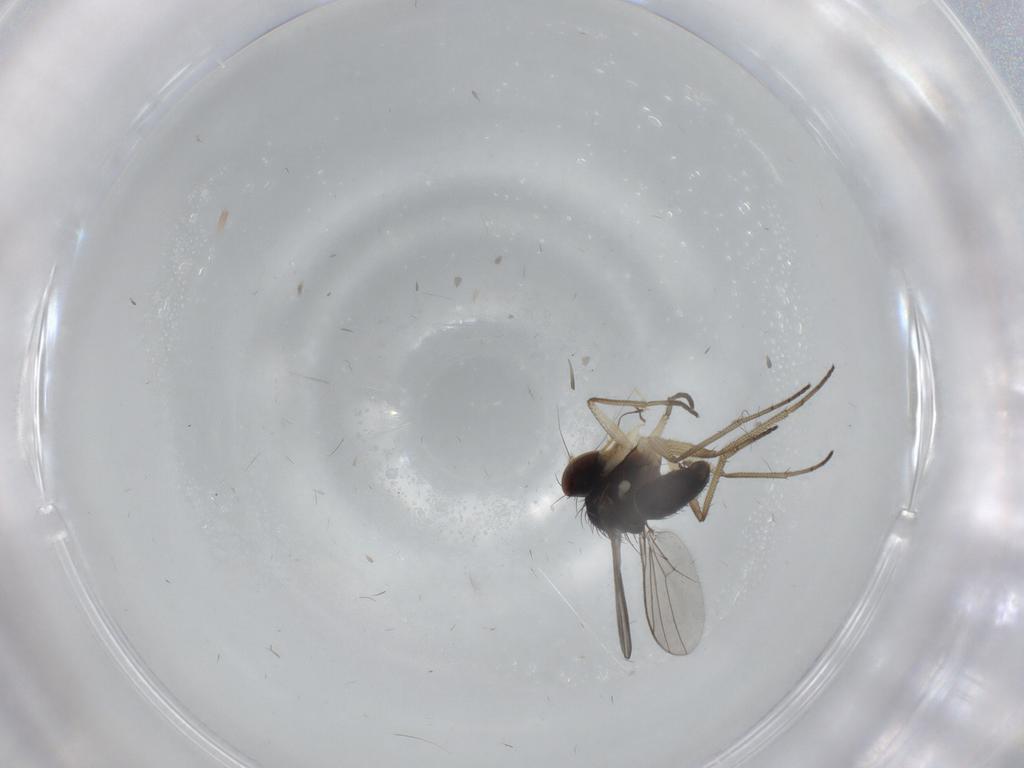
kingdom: Animalia
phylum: Arthropoda
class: Insecta
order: Diptera
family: Dolichopodidae
